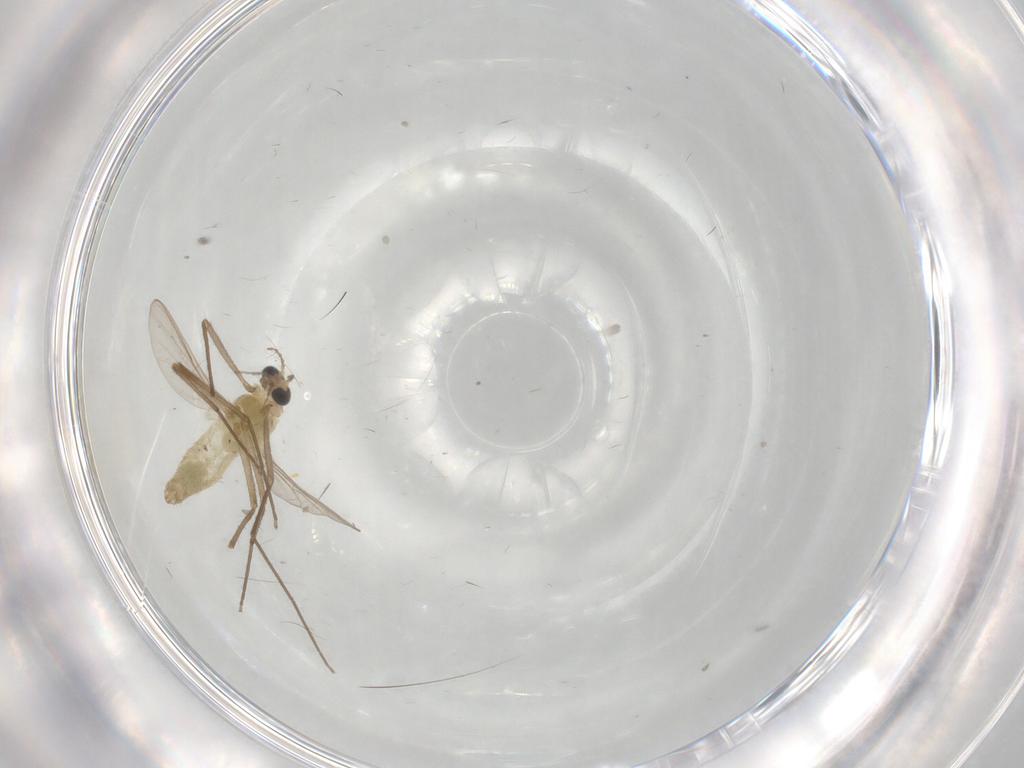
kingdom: Animalia
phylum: Arthropoda
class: Insecta
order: Diptera
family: Chironomidae
